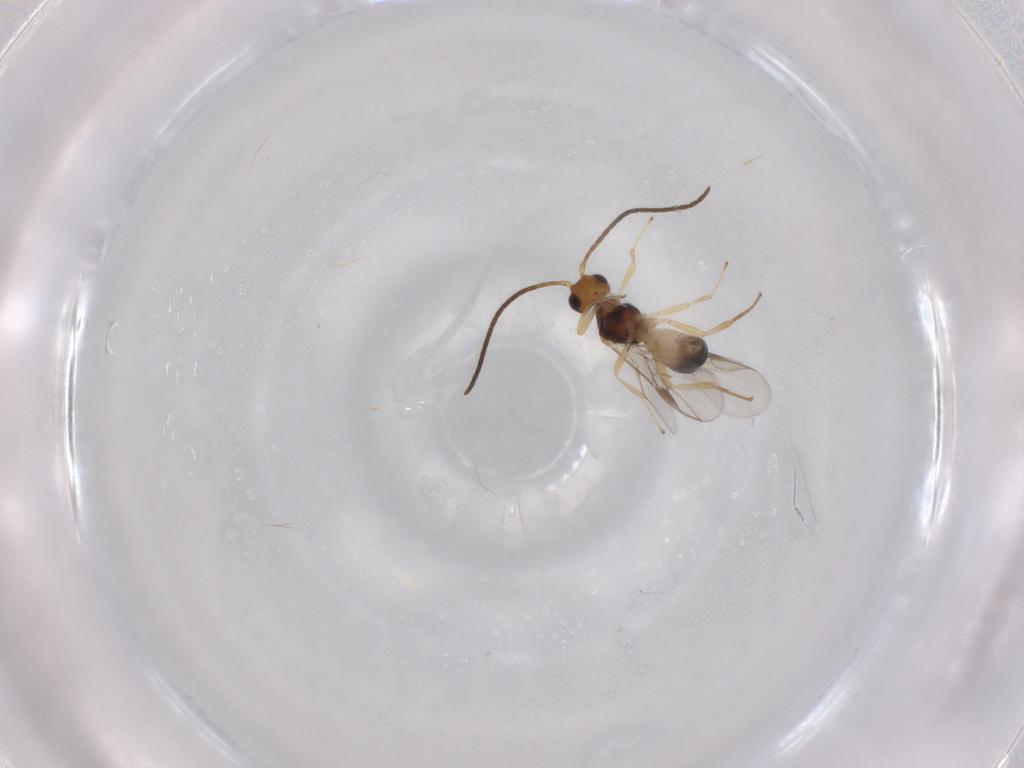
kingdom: Animalia
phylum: Arthropoda
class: Insecta
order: Hymenoptera
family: Braconidae
